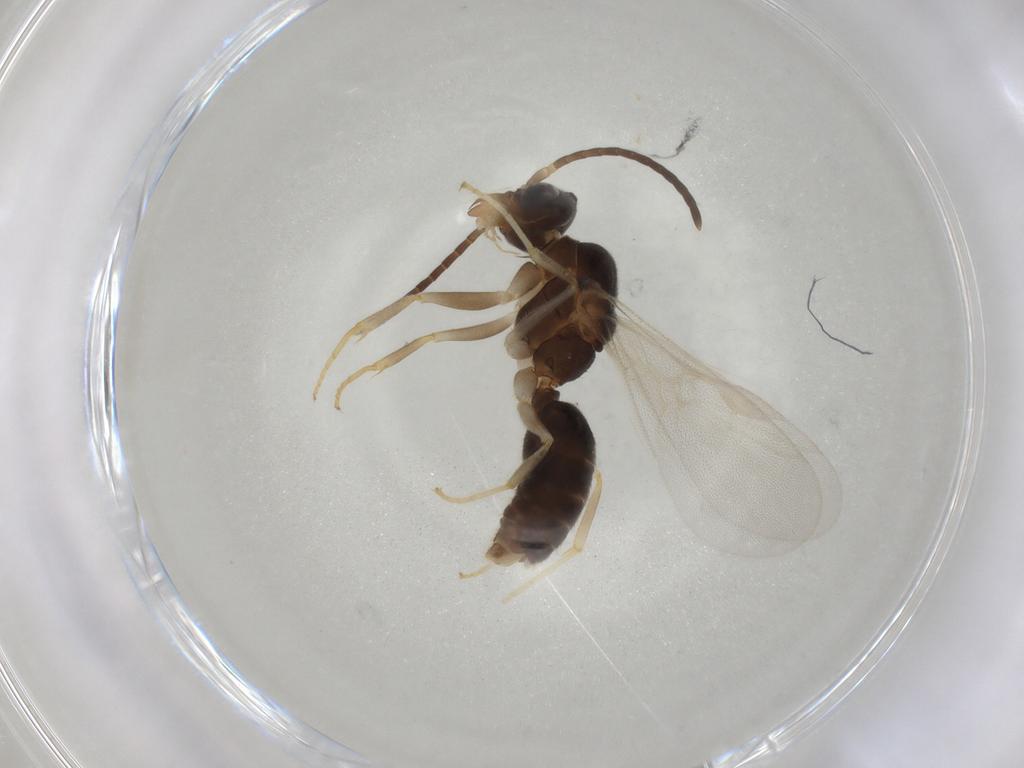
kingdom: Animalia
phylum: Arthropoda
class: Insecta
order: Hymenoptera
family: Formicidae
